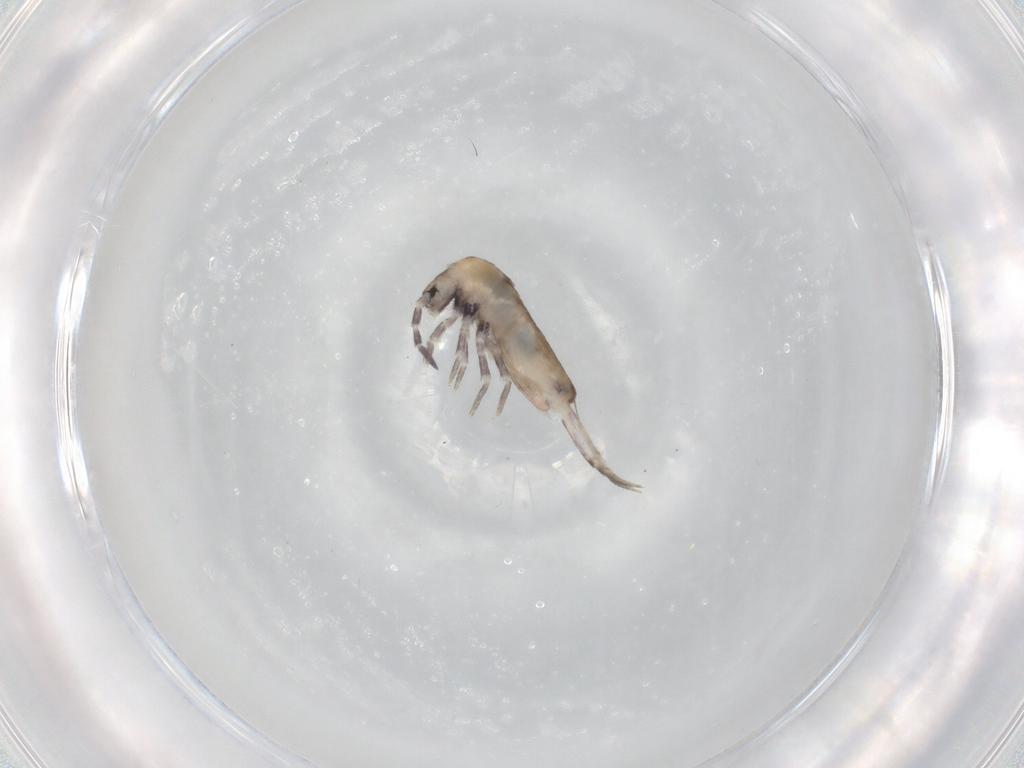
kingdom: Animalia
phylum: Arthropoda
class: Collembola
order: Entomobryomorpha
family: Entomobryidae
